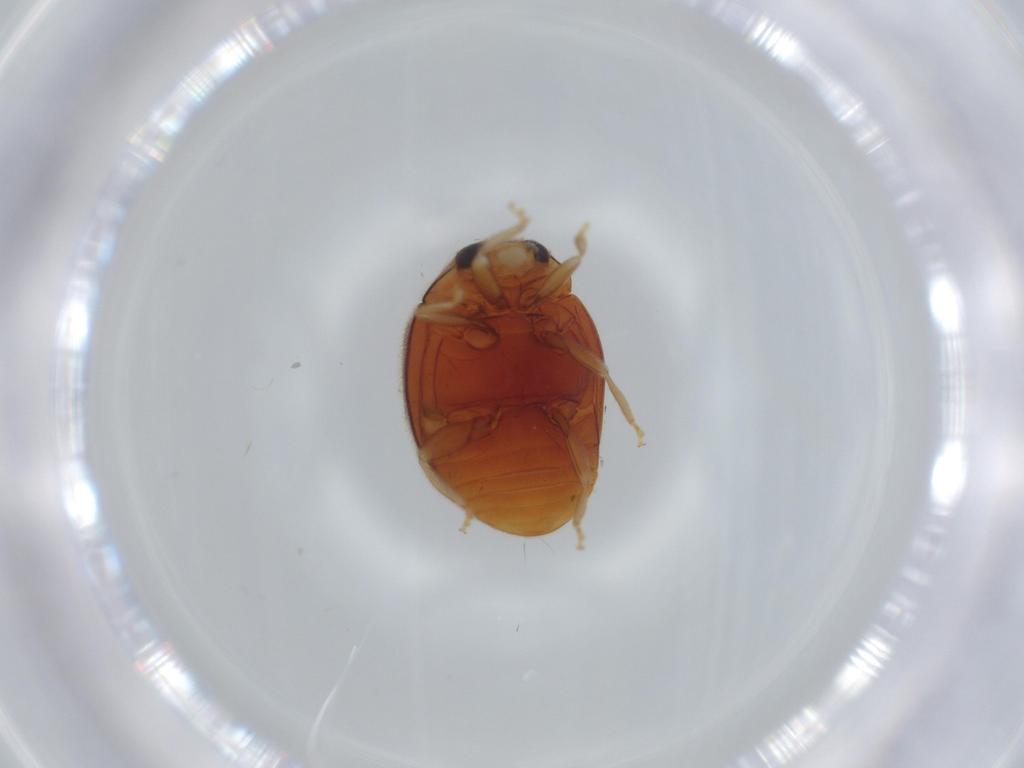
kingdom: Animalia
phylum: Arthropoda
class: Insecta
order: Coleoptera
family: Coccinellidae
